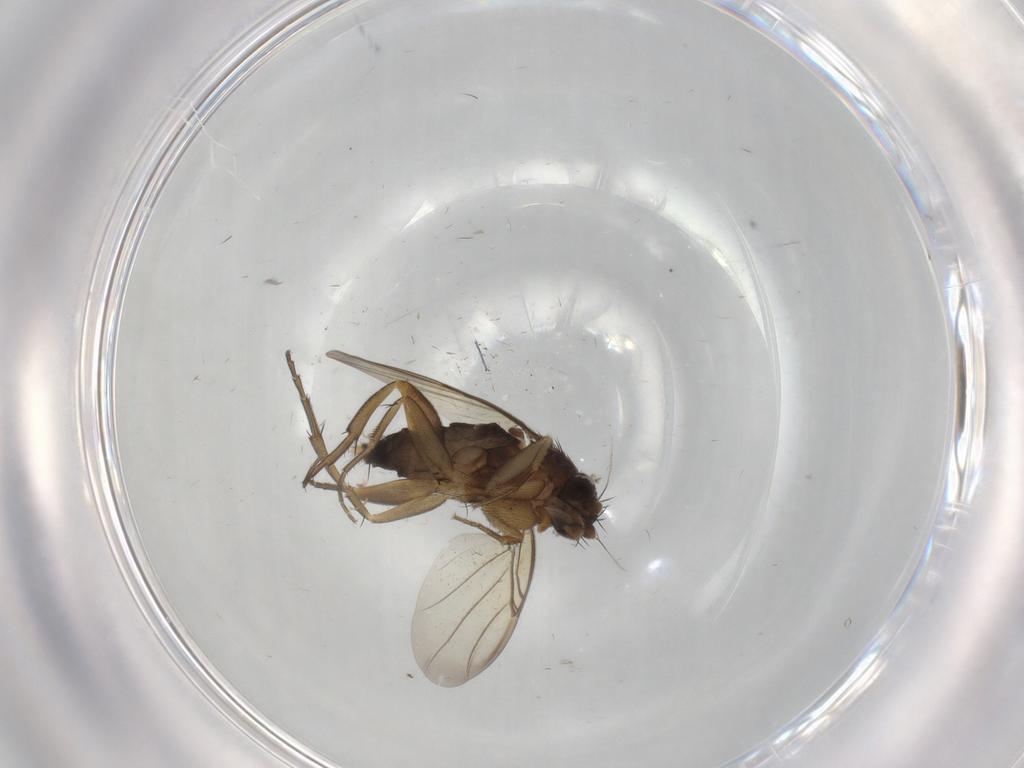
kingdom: Animalia
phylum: Arthropoda
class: Insecta
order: Diptera
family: Phoridae
